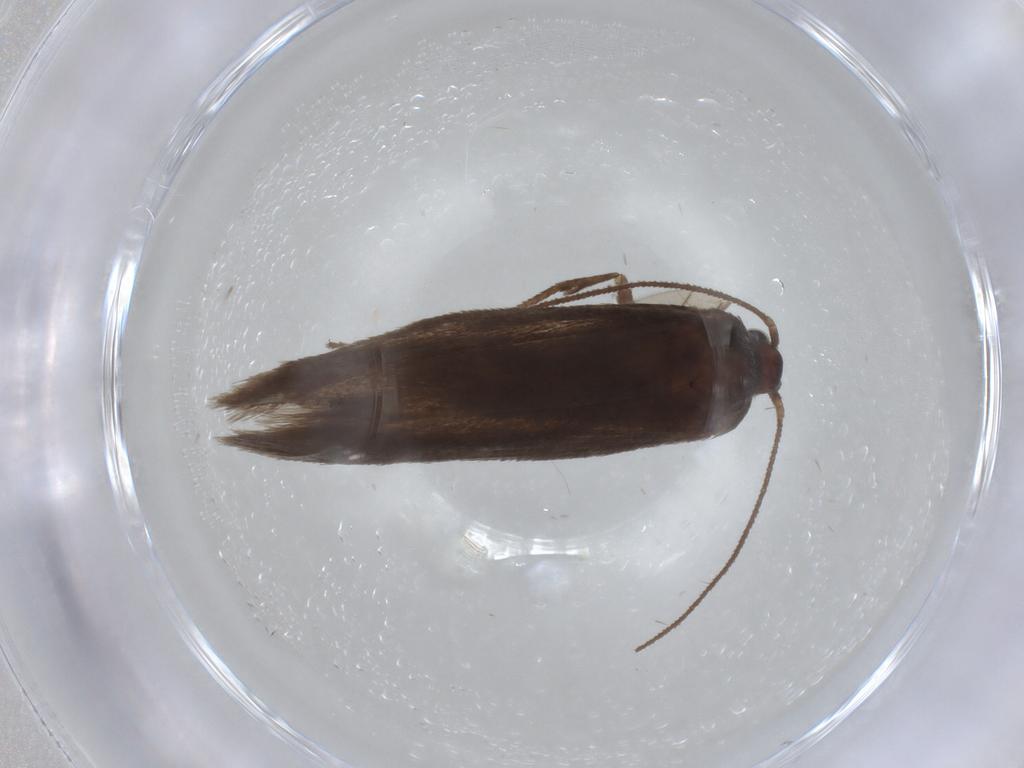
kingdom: Animalia
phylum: Arthropoda
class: Insecta
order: Lepidoptera
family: Limacodidae
